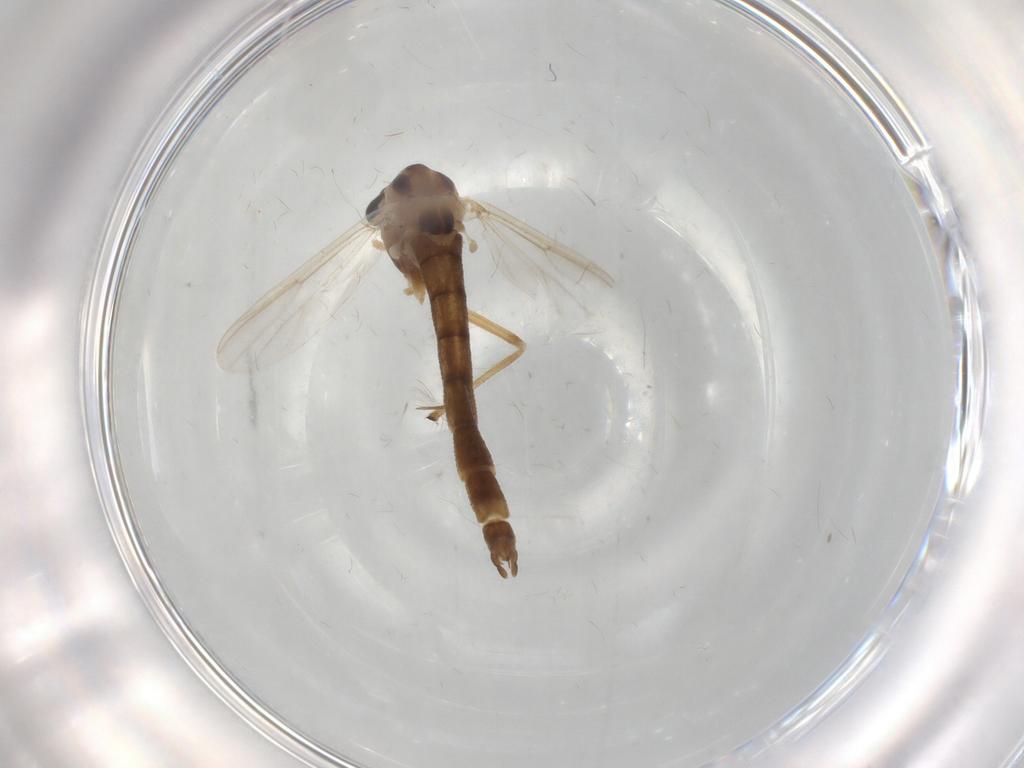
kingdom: Animalia
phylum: Arthropoda
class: Insecta
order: Diptera
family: Chironomidae
